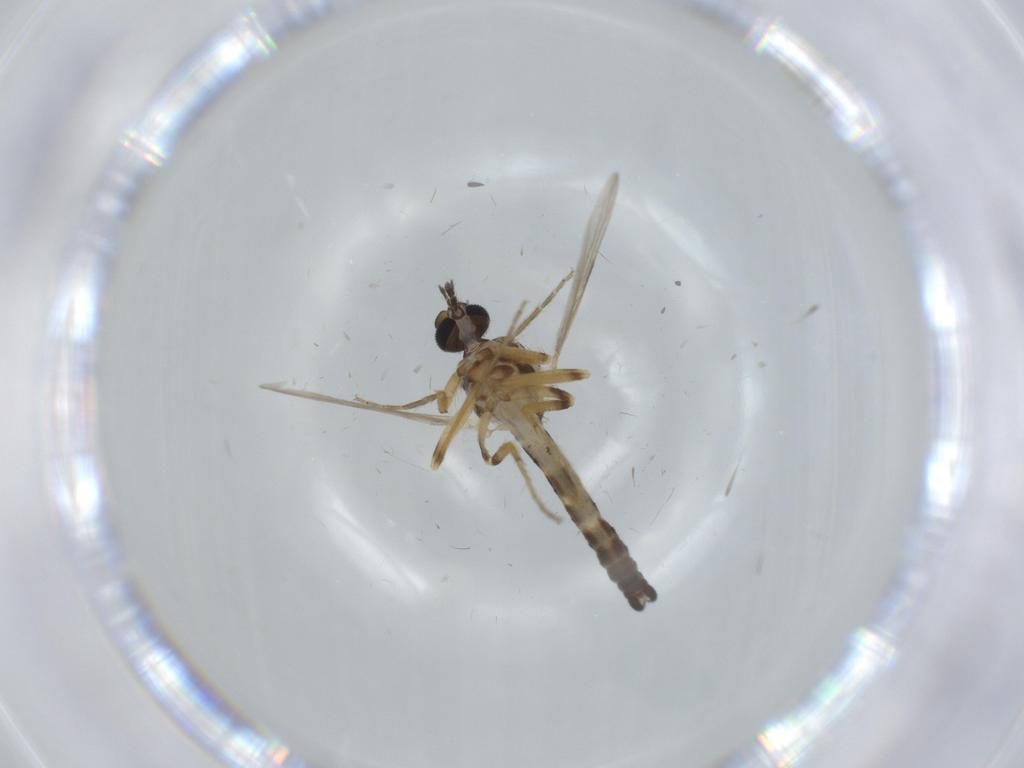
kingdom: Animalia
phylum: Arthropoda
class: Insecta
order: Diptera
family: Ceratopogonidae
